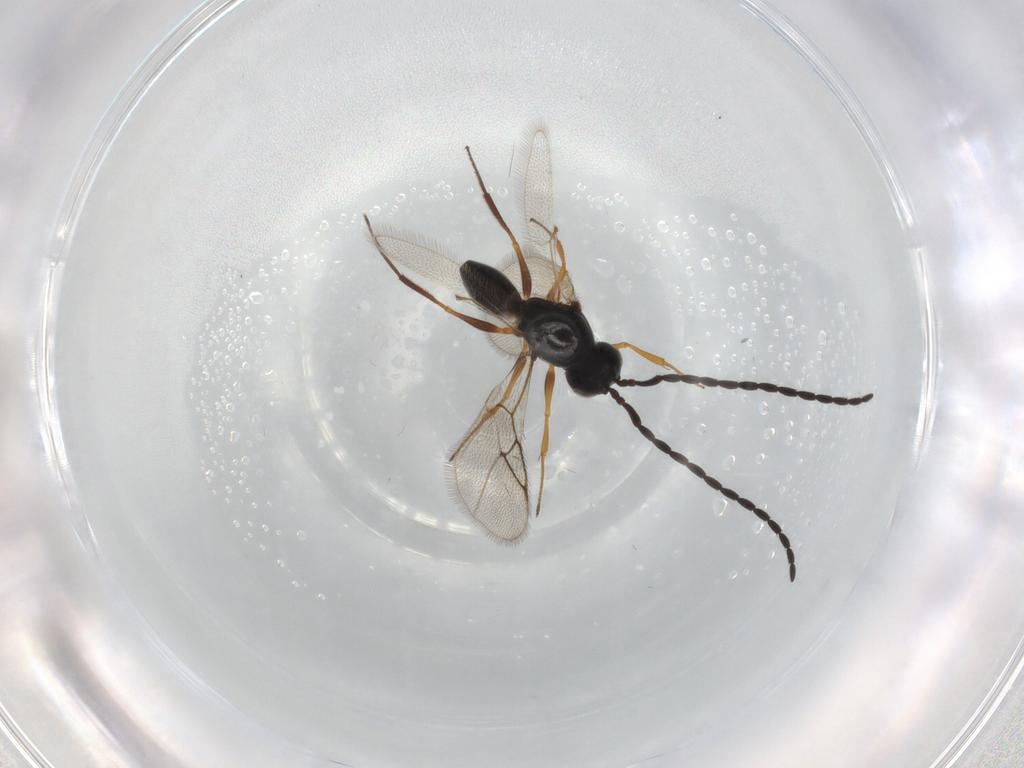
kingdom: Animalia
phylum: Arthropoda
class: Insecta
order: Hymenoptera
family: Figitidae
